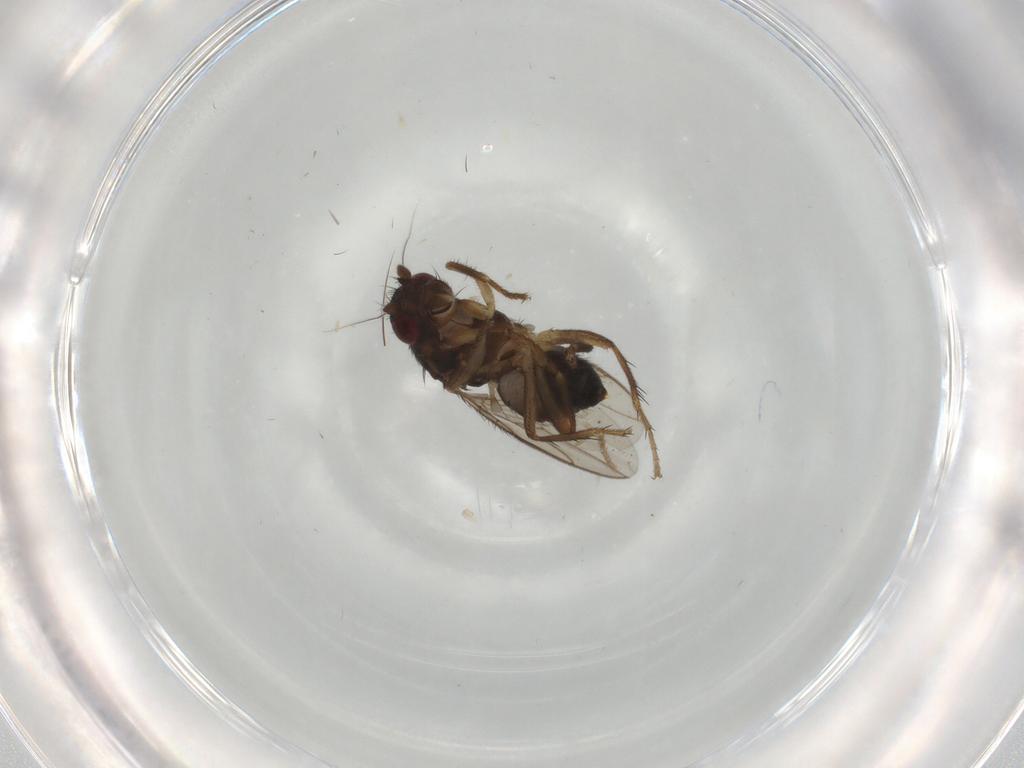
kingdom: Animalia
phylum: Arthropoda
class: Insecta
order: Diptera
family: Sphaeroceridae
